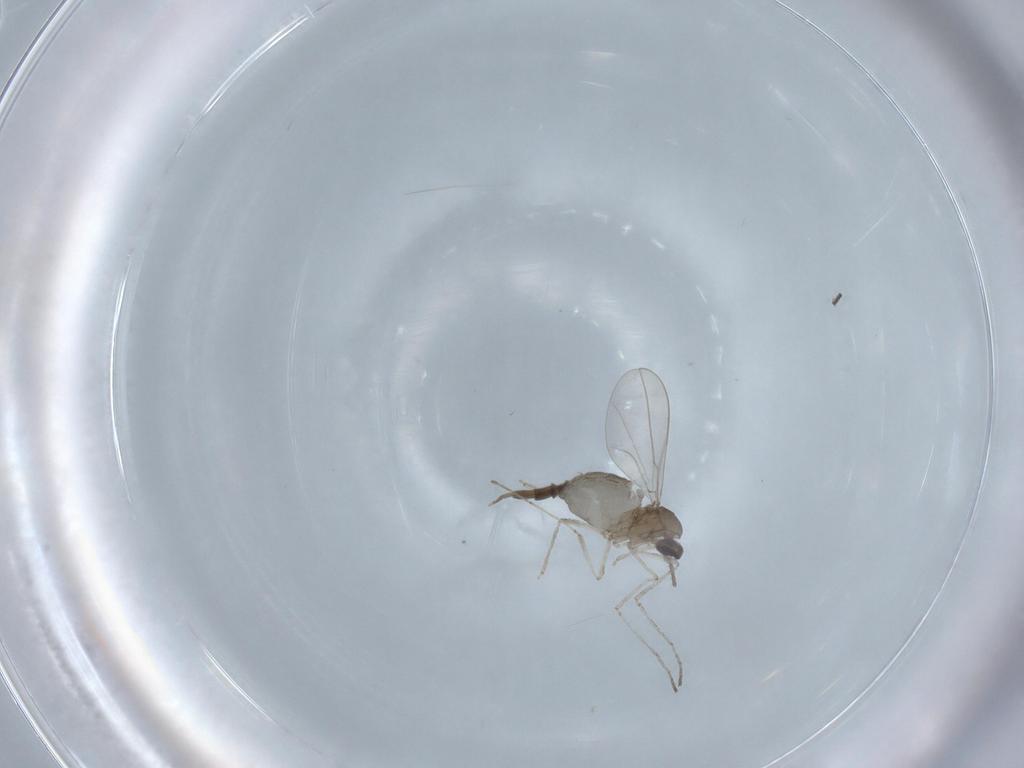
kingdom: Animalia
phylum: Arthropoda
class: Insecta
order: Diptera
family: Cecidomyiidae
